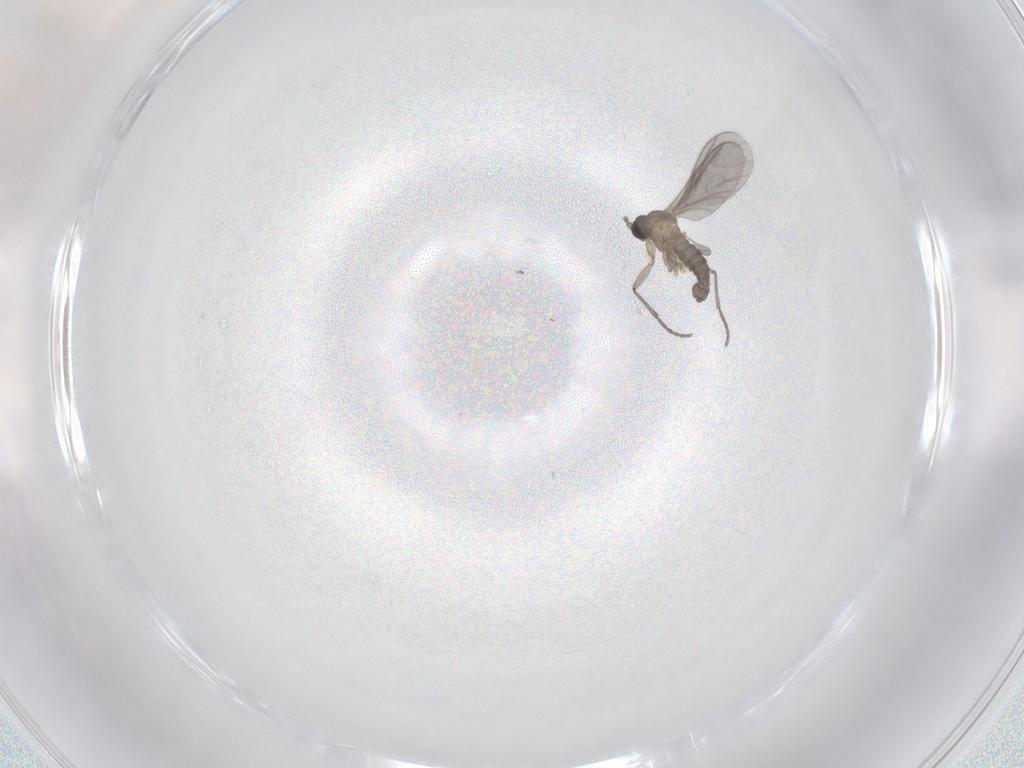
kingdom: Animalia
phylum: Arthropoda
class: Insecta
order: Diptera
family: Sciaridae
